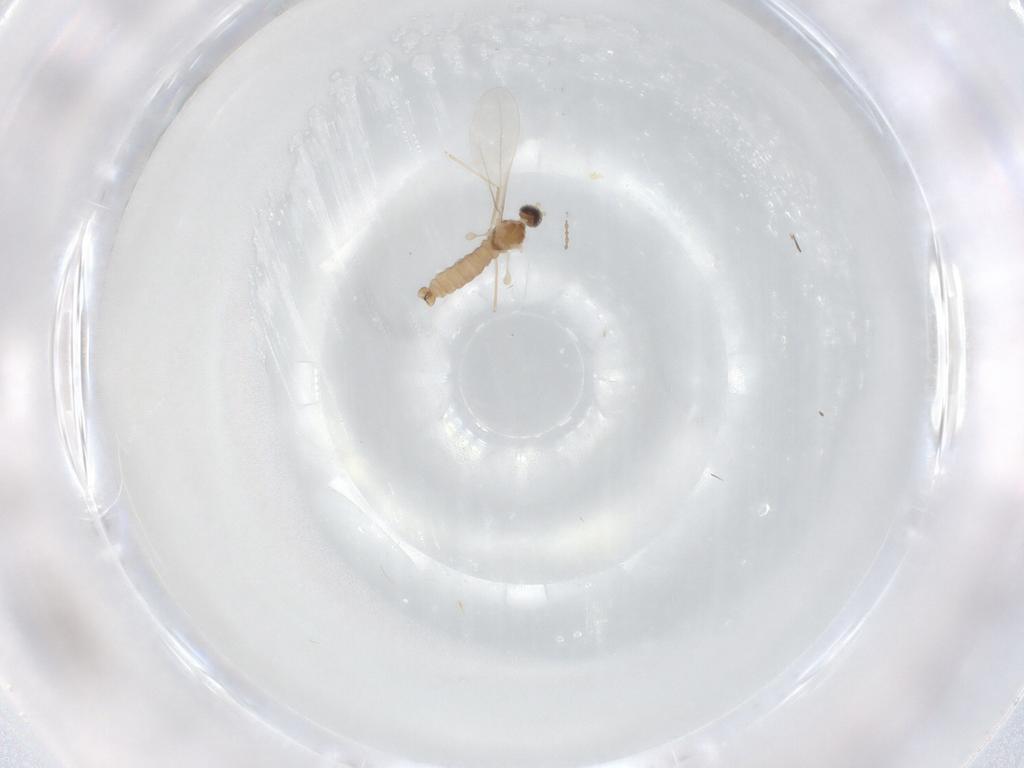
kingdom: Animalia
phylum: Arthropoda
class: Insecta
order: Diptera
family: Cecidomyiidae
